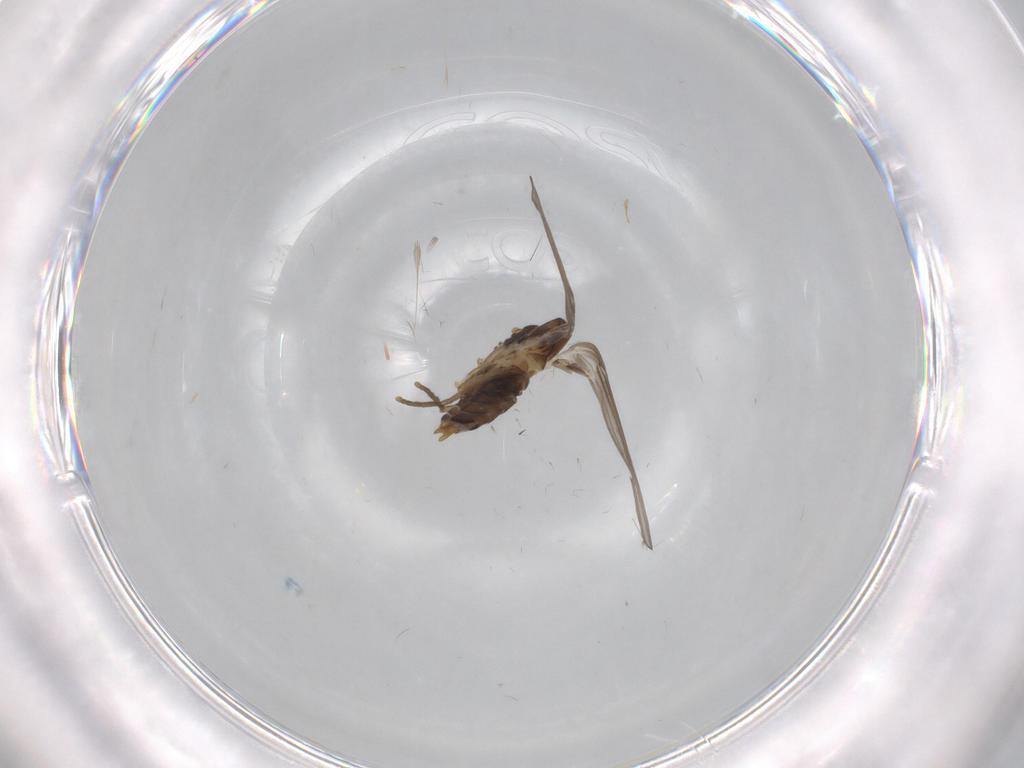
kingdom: Animalia
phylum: Arthropoda
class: Insecta
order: Diptera
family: Psychodidae
